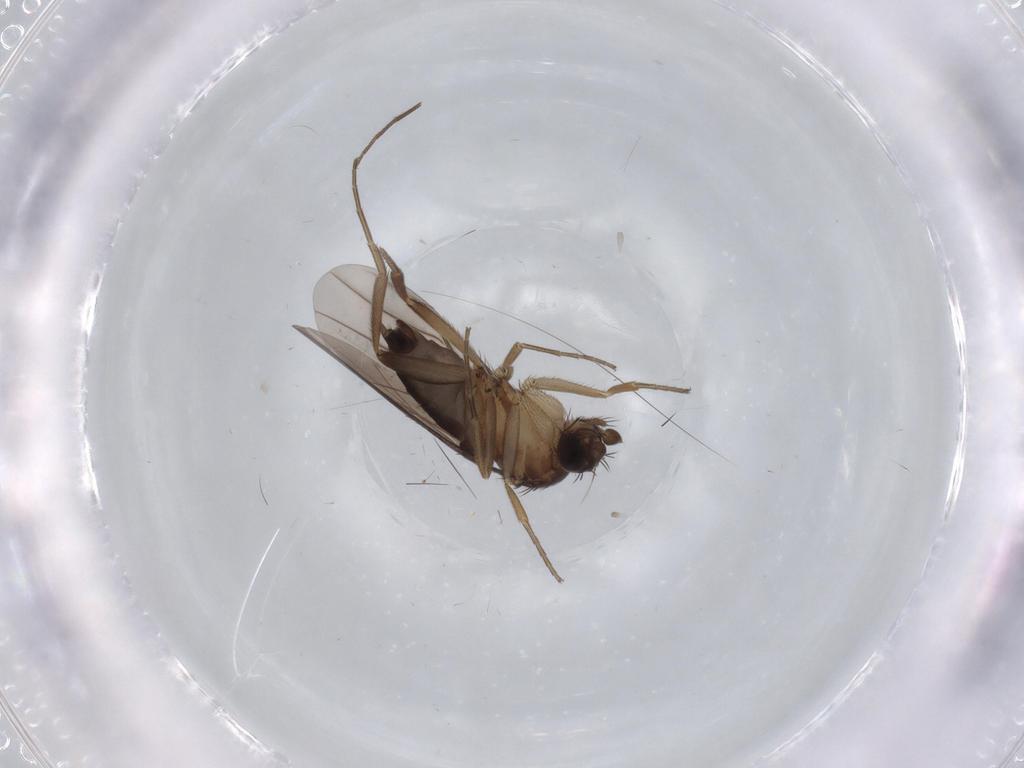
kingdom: Animalia
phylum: Arthropoda
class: Insecta
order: Diptera
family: Phoridae
